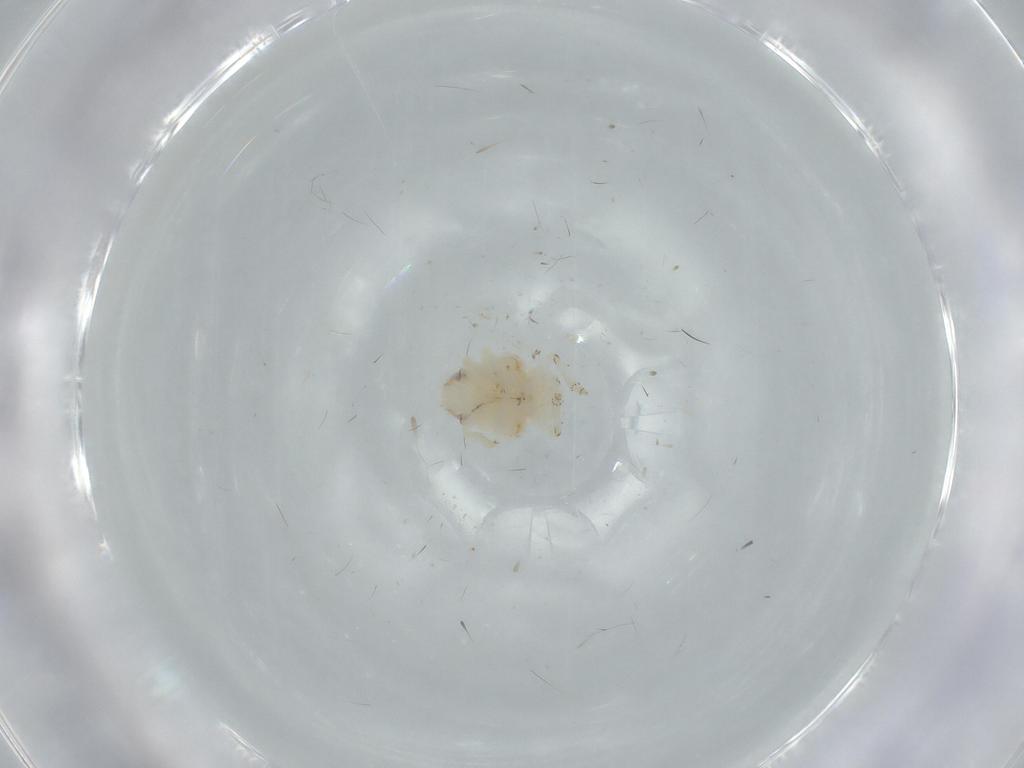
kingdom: Animalia
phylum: Arthropoda
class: Insecta
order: Hemiptera
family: Nogodinidae
